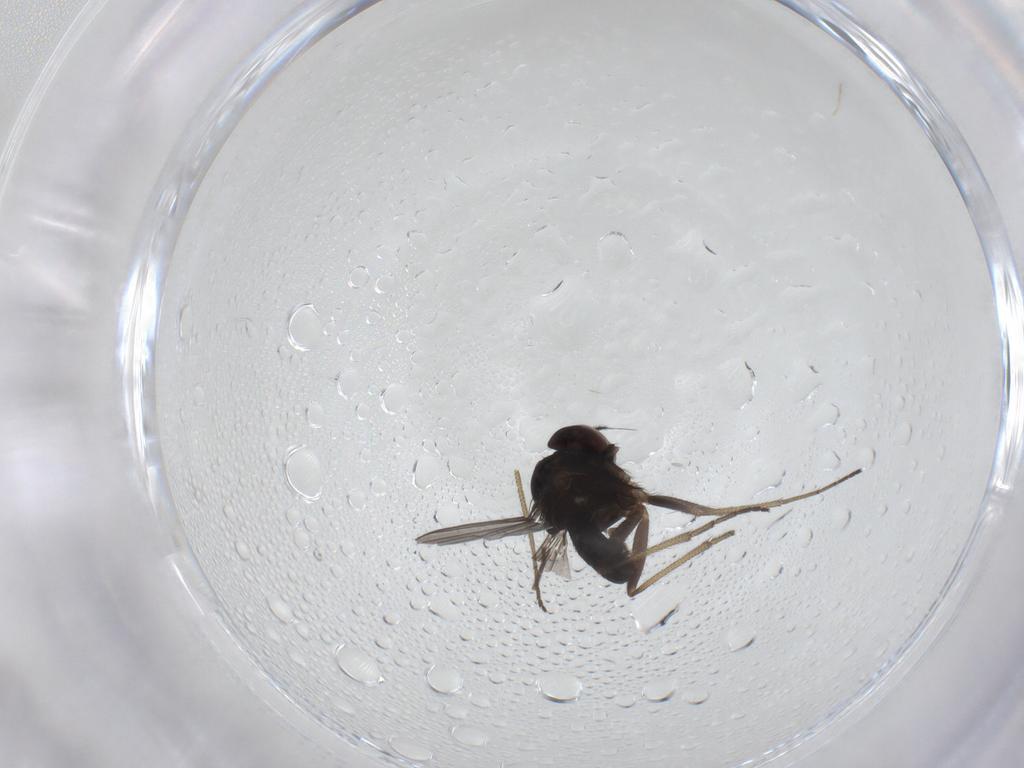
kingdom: Animalia
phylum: Arthropoda
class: Insecta
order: Diptera
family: Dolichopodidae
